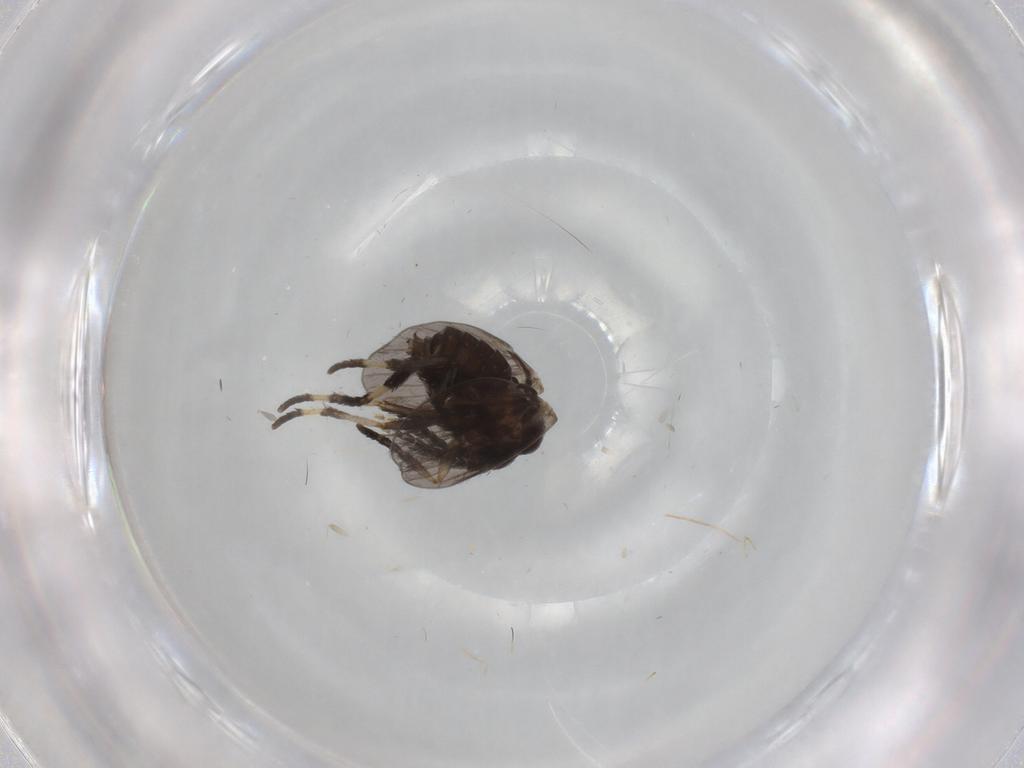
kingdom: Animalia
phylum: Arthropoda
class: Insecta
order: Diptera
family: Psychodidae
